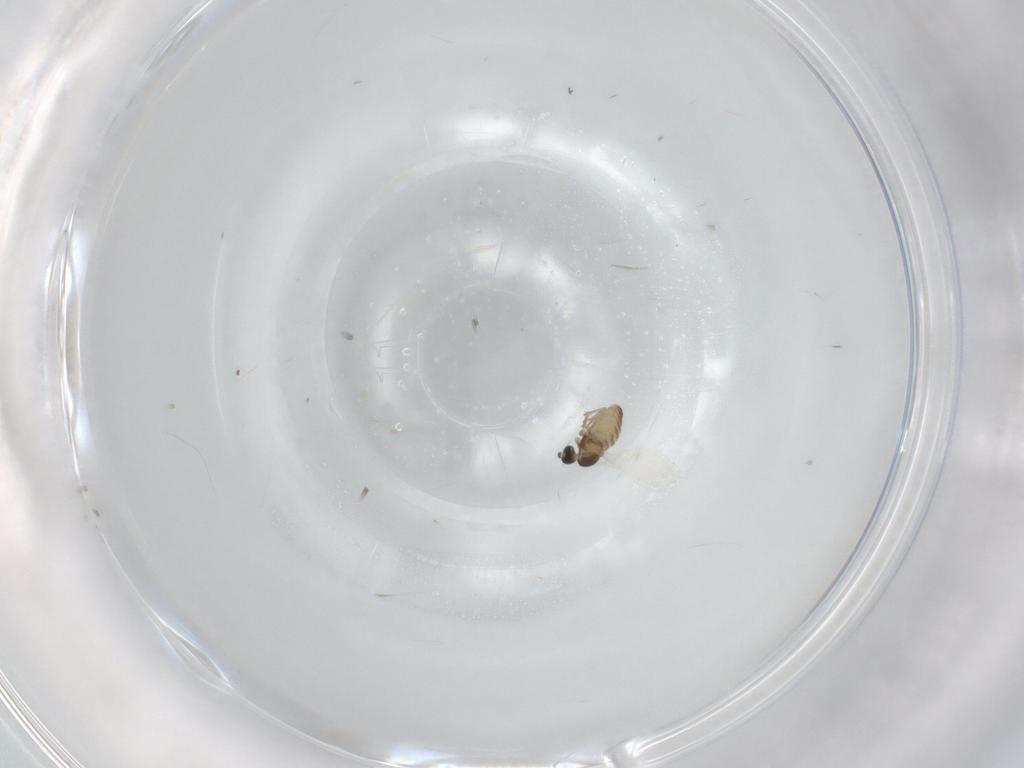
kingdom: Animalia
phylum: Arthropoda
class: Insecta
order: Diptera
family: Cecidomyiidae
